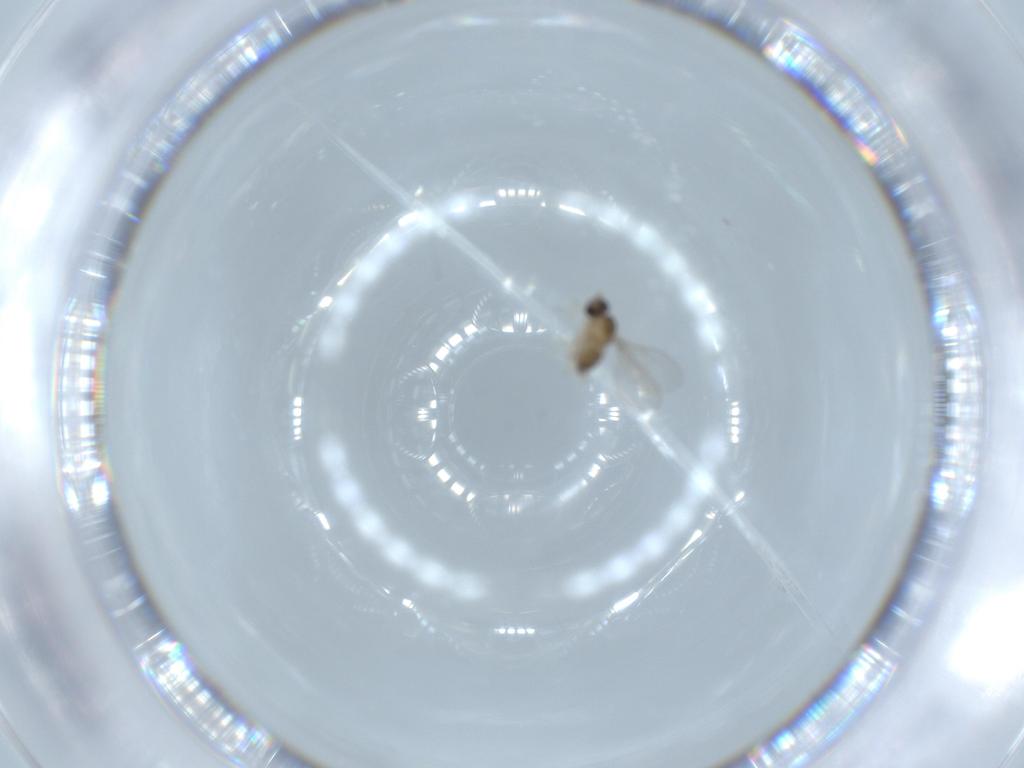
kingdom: Animalia
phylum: Arthropoda
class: Insecta
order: Diptera
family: Cecidomyiidae
